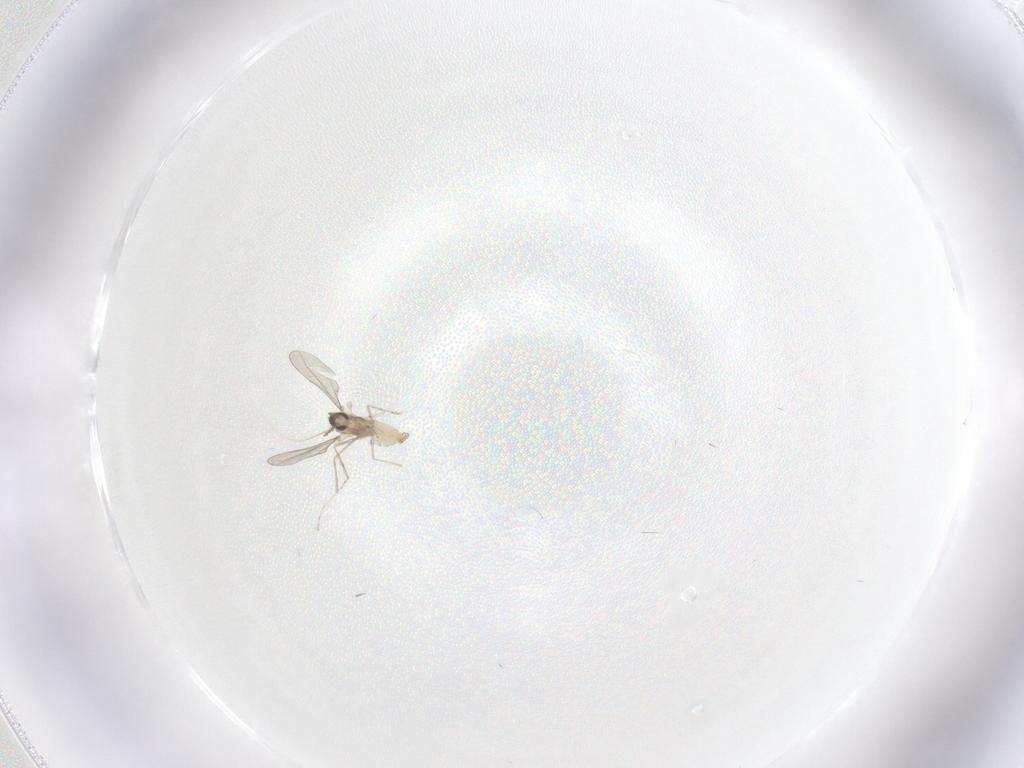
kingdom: Animalia
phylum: Arthropoda
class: Insecta
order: Diptera
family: Cecidomyiidae
